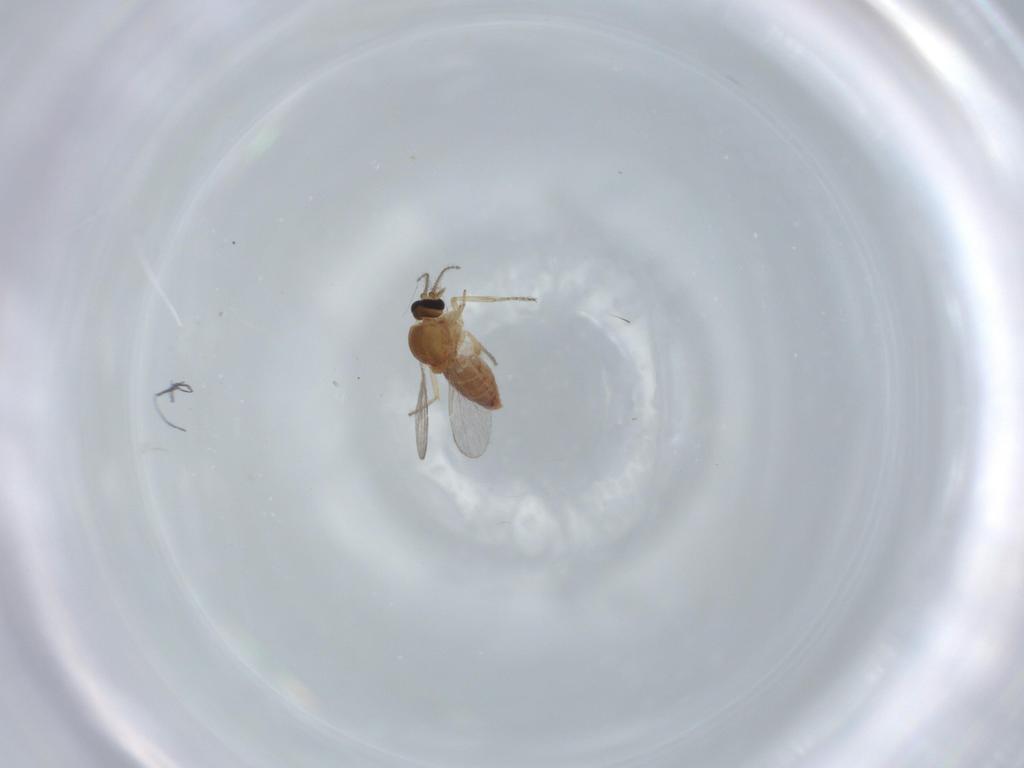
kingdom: Animalia
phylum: Arthropoda
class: Insecta
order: Diptera
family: Ceratopogonidae
